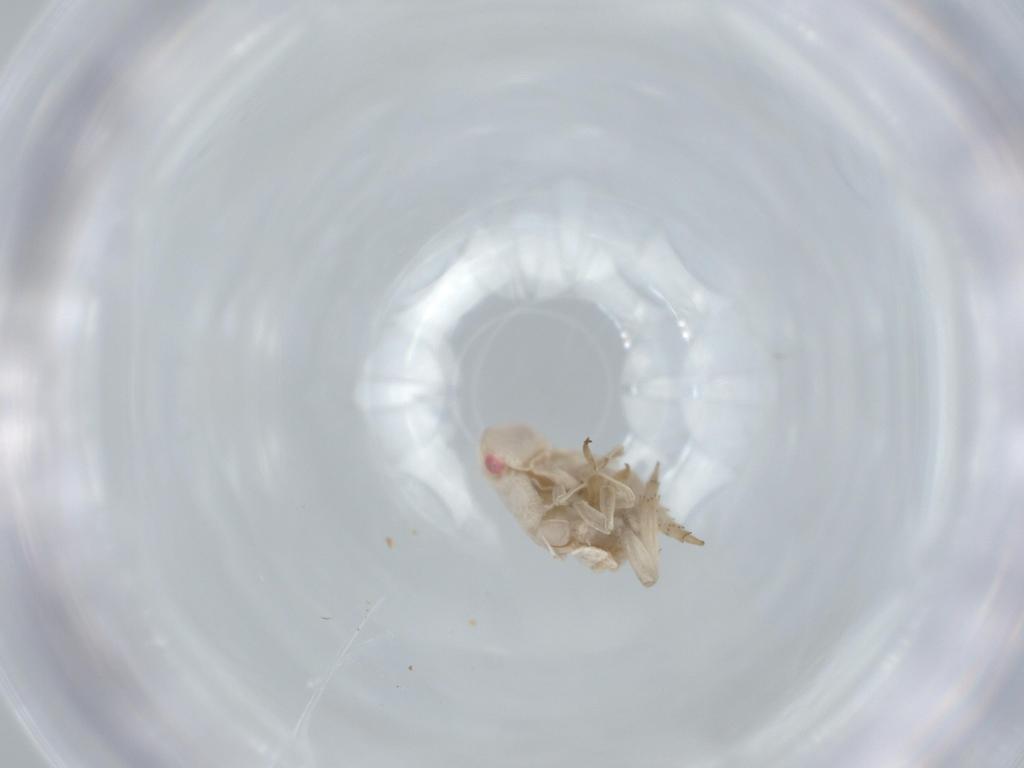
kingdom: Animalia
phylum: Arthropoda
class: Insecta
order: Hemiptera
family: Flatidae
